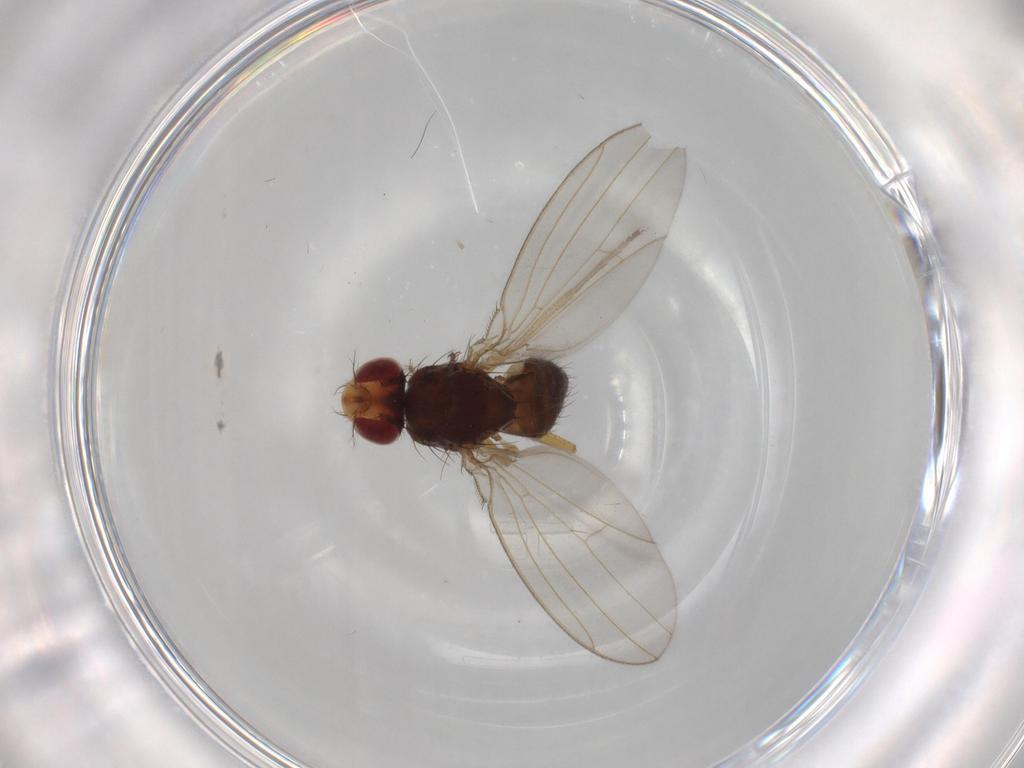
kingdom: Animalia
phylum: Arthropoda
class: Insecta
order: Diptera
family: Drosophilidae
